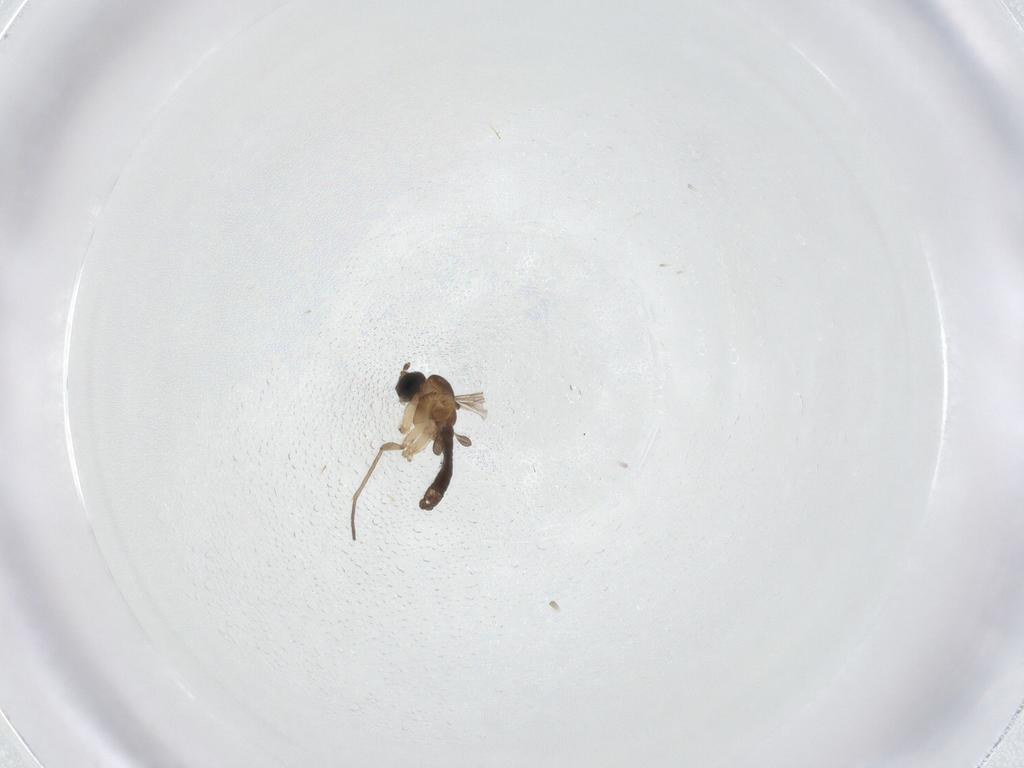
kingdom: Animalia
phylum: Arthropoda
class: Insecta
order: Diptera
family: Sciaridae
